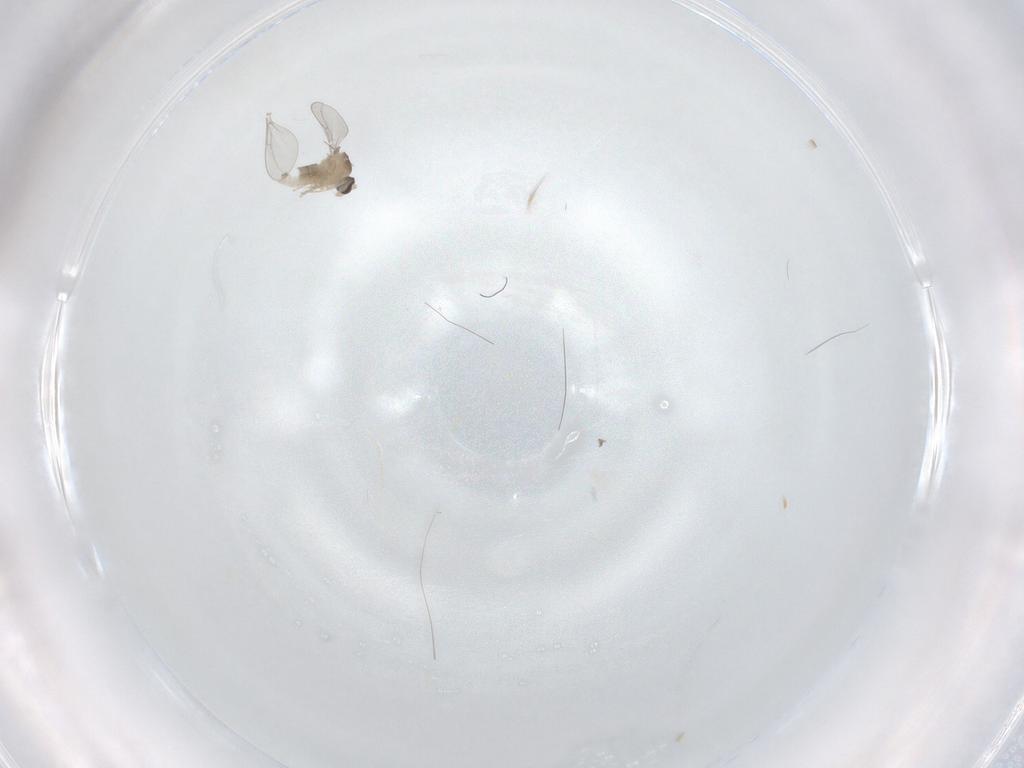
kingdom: Animalia
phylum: Arthropoda
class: Insecta
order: Diptera
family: Cecidomyiidae
